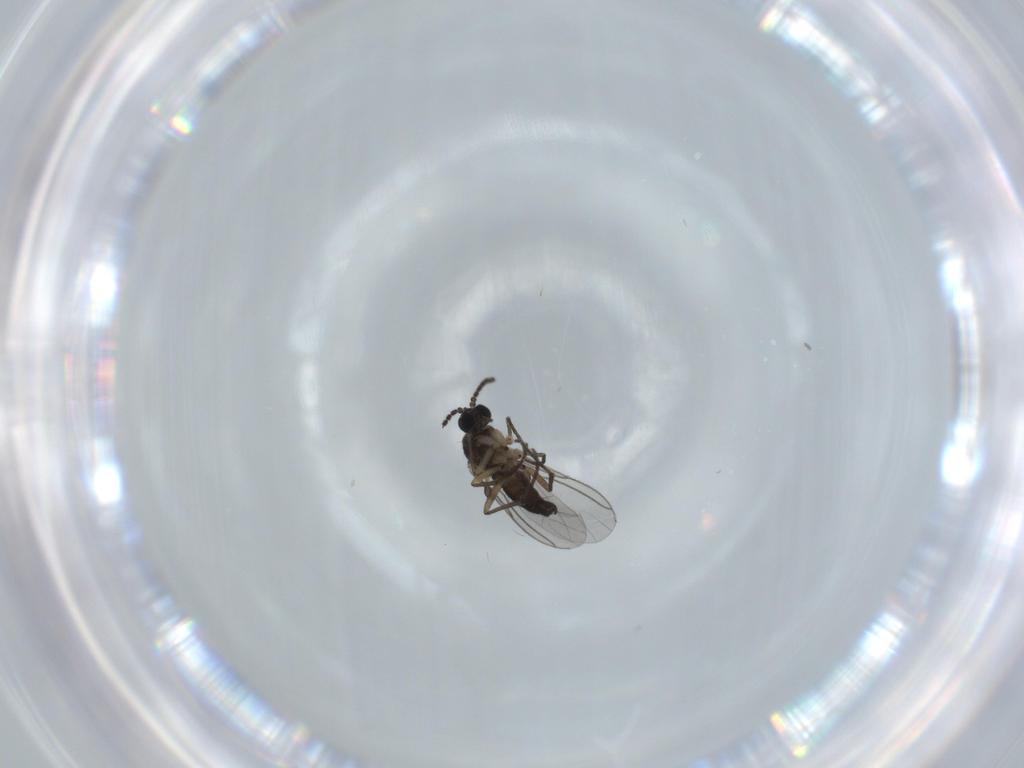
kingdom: Animalia
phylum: Arthropoda
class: Insecta
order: Diptera
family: Sciaridae
